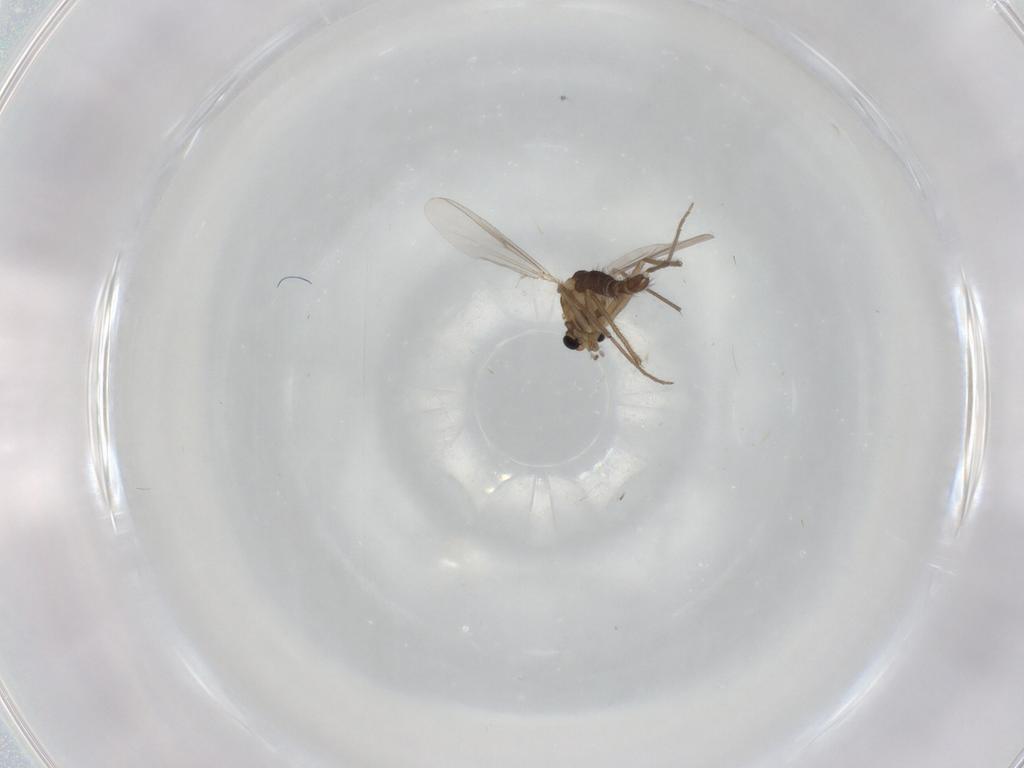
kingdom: Animalia
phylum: Arthropoda
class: Insecta
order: Diptera
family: Chironomidae
